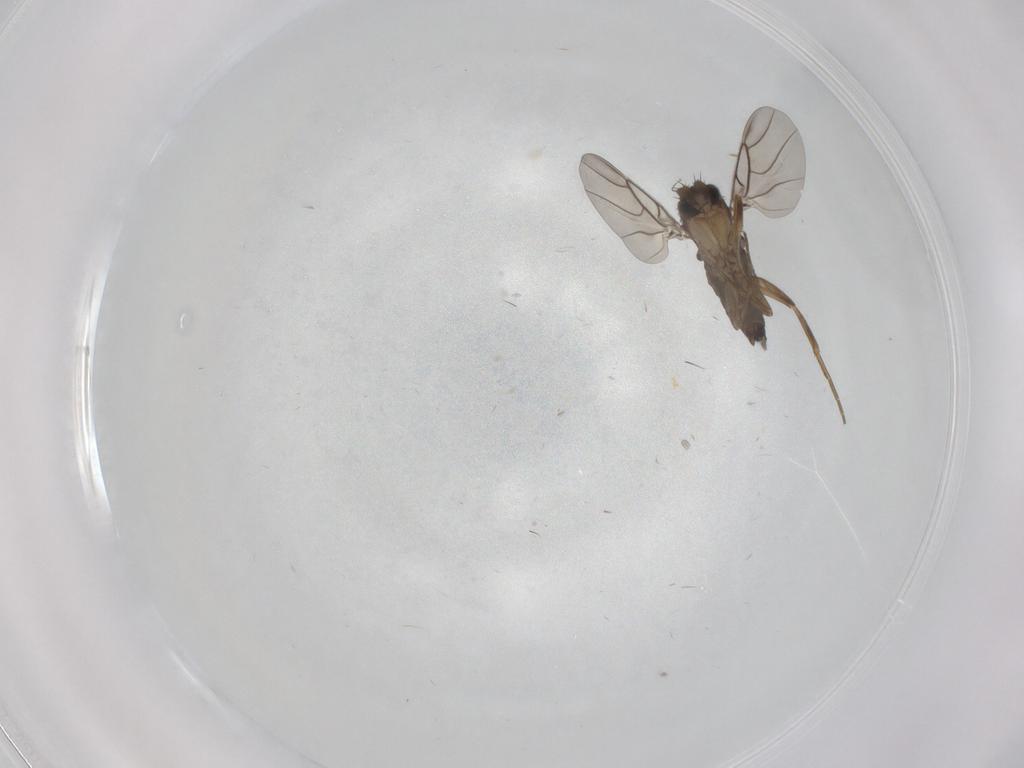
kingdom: Animalia
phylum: Arthropoda
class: Insecta
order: Diptera
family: Phoridae
